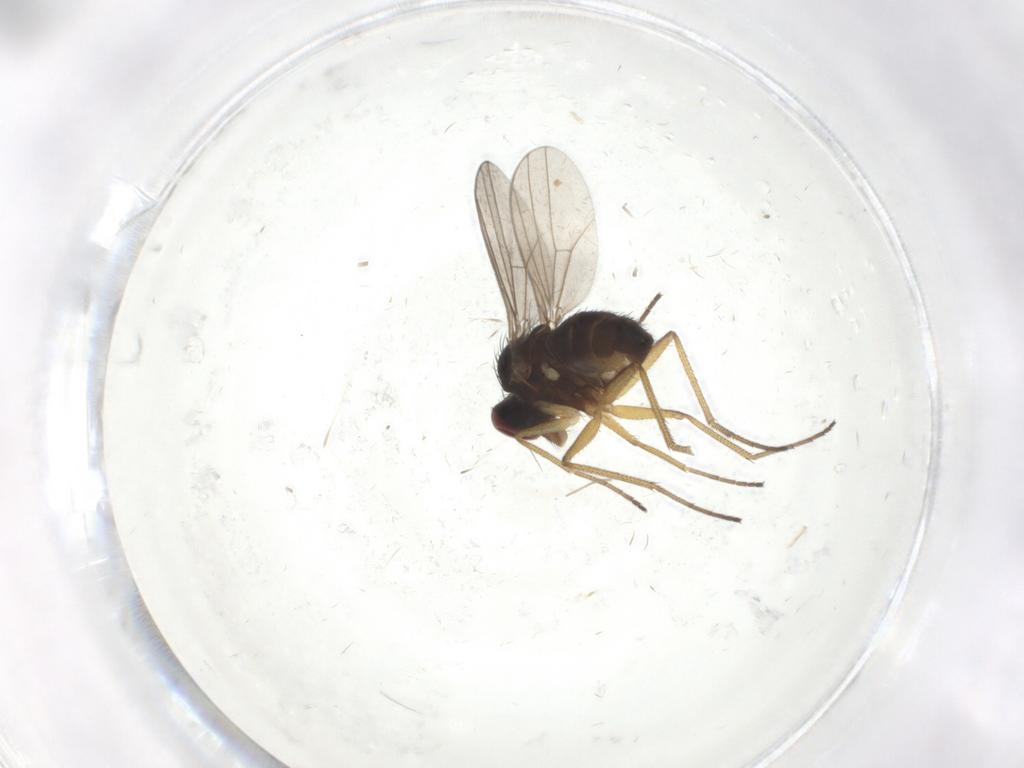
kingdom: Animalia
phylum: Arthropoda
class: Insecta
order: Diptera
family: Dolichopodidae
